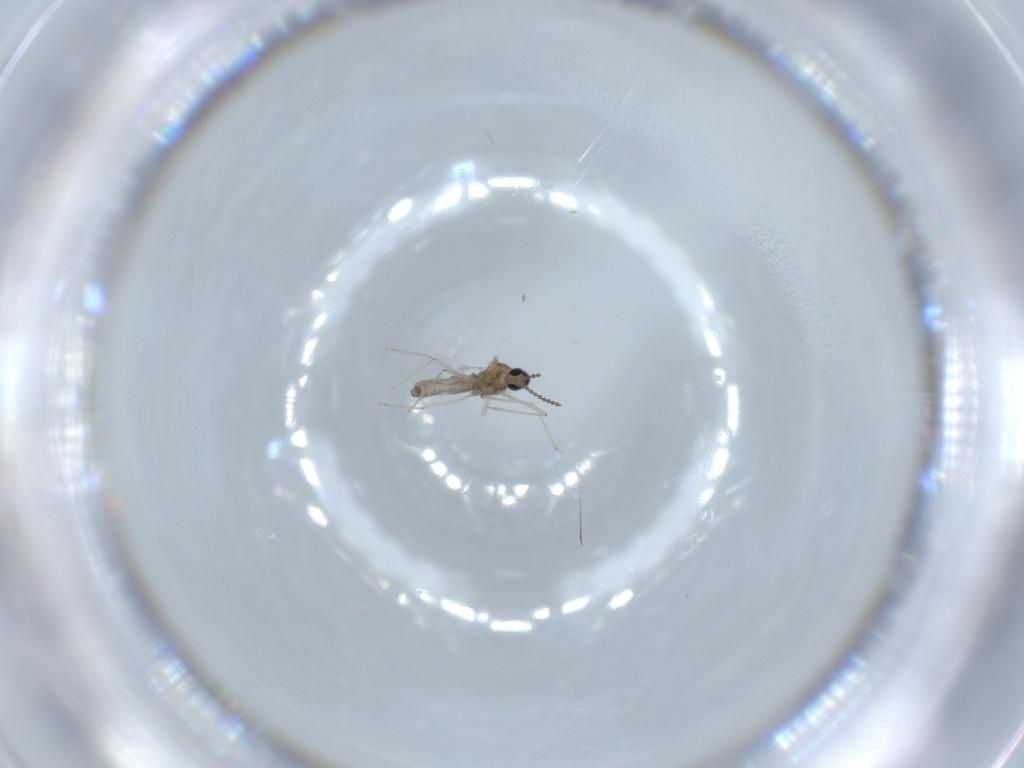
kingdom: Animalia
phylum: Arthropoda
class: Insecta
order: Diptera
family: Cecidomyiidae
